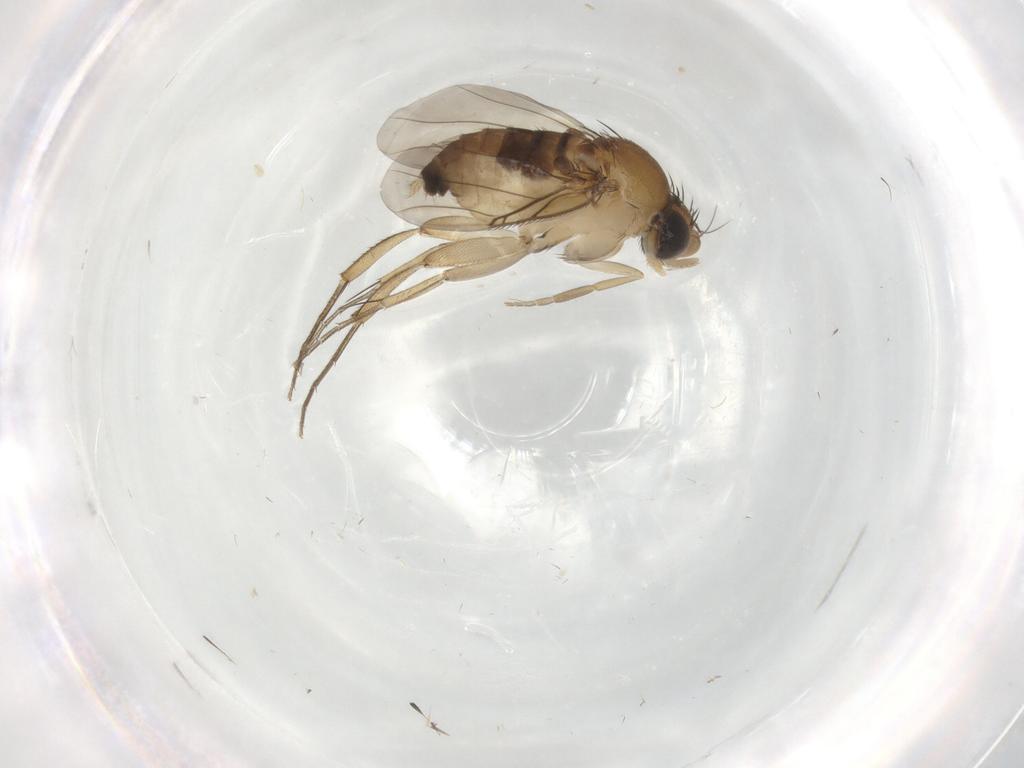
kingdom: Animalia
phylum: Arthropoda
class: Insecta
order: Diptera
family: Phoridae
